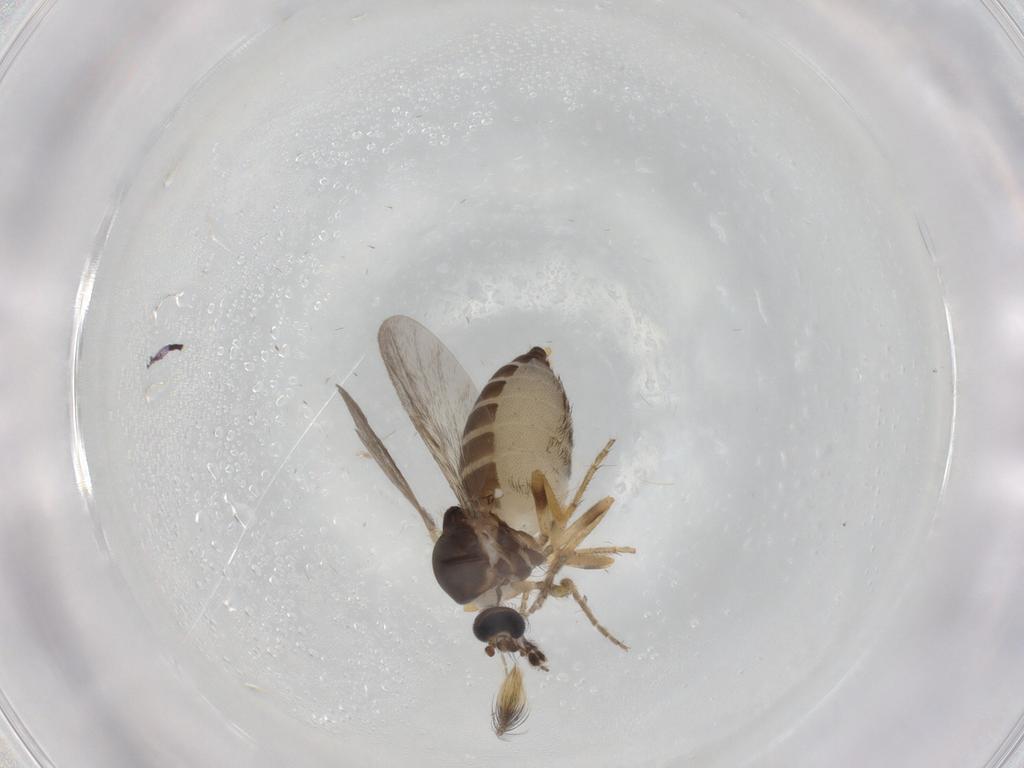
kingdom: Animalia
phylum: Arthropoda
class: Insecta
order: Diptera
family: Ceratopogonidae
